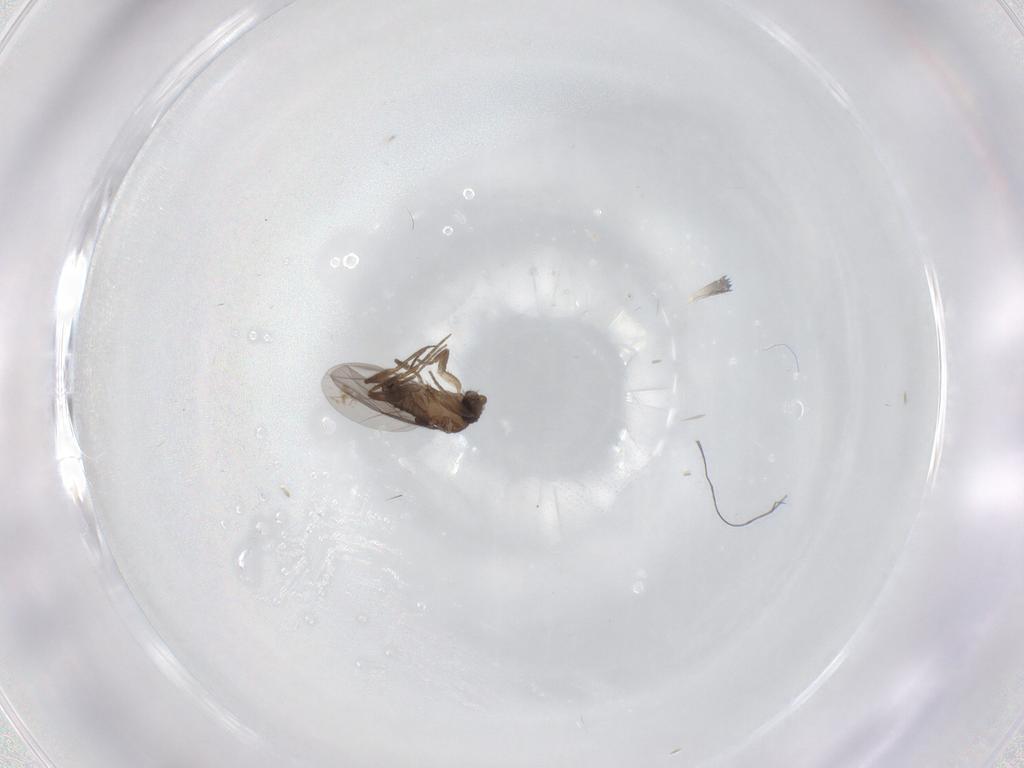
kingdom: Animalia
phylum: Arthropoda
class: Insecta
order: Diptera
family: Phoridae
